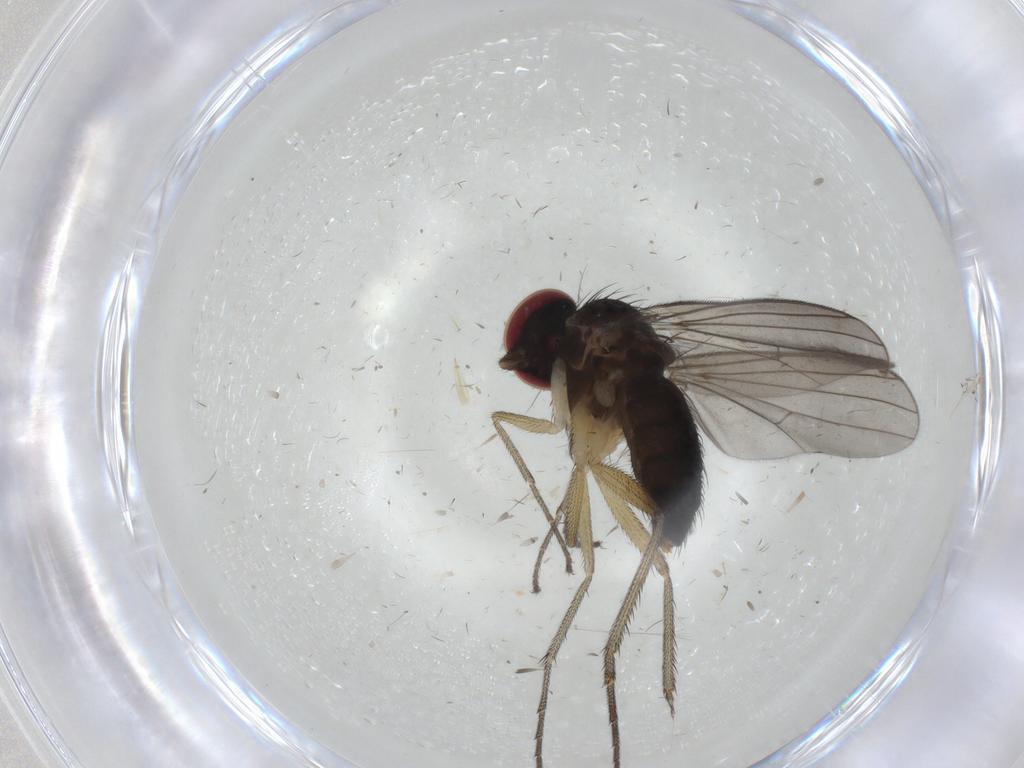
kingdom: Animalia
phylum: Arthropoda
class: Insecta
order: Diptera
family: Dolichopodidae
